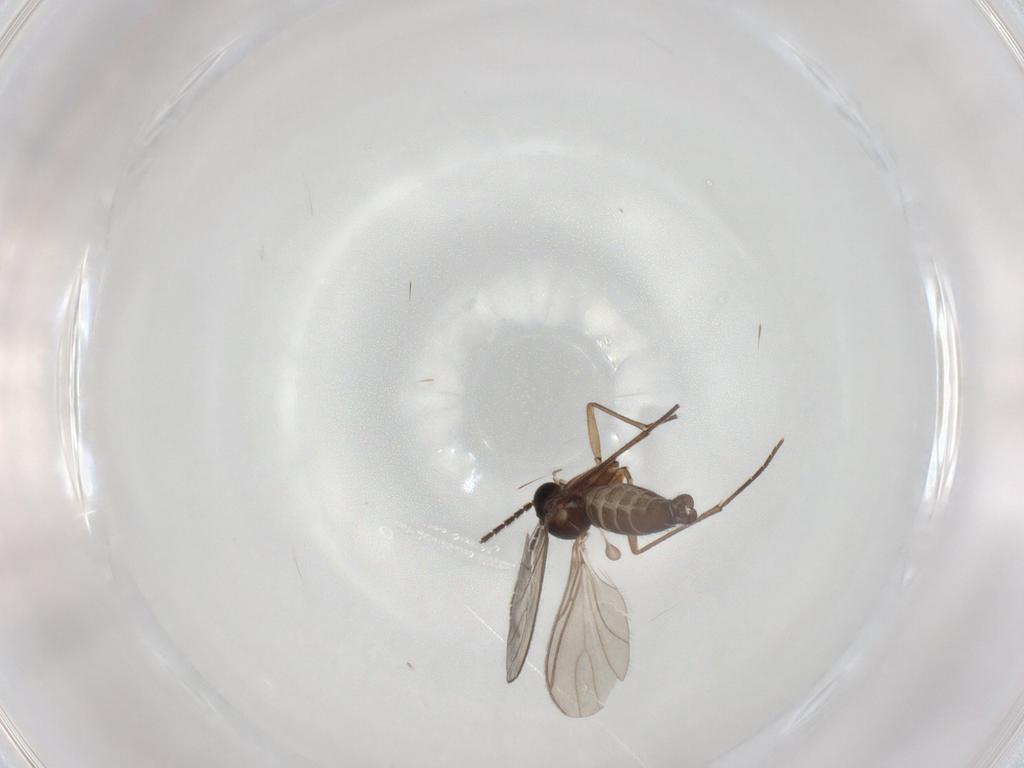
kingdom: Animalia
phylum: Arthropoda
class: Insecta
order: Diptera
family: Sciaridae
